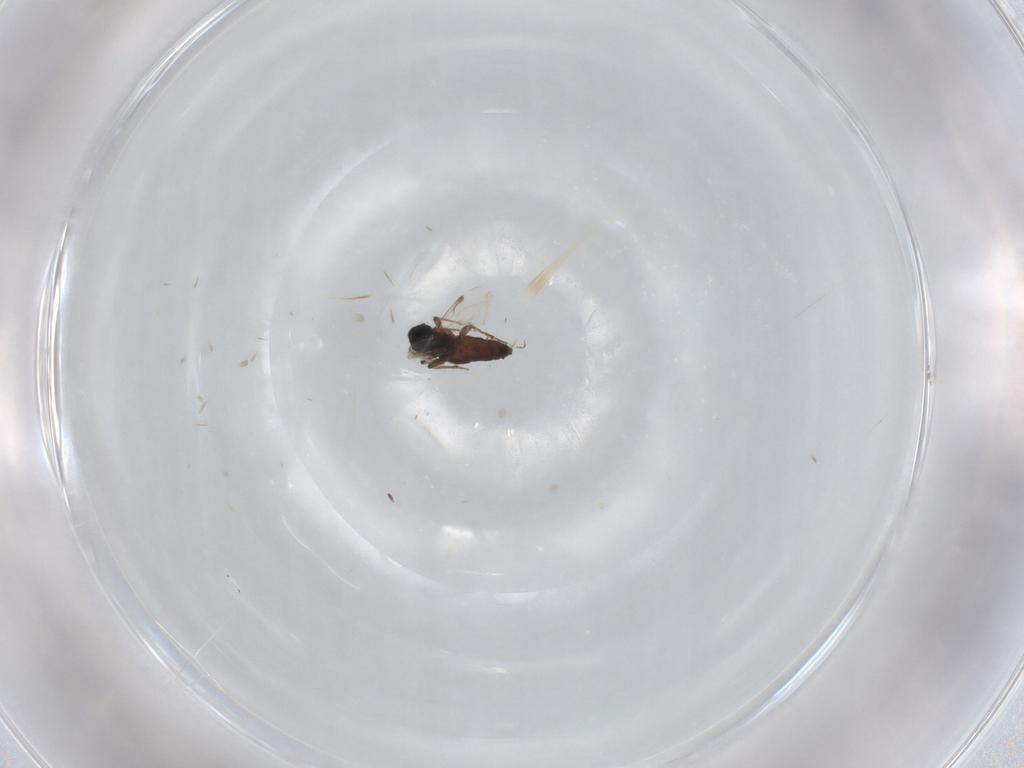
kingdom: Animalia
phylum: Arthropoda
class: Insecta
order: Diptera
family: Ceratopogonidae
